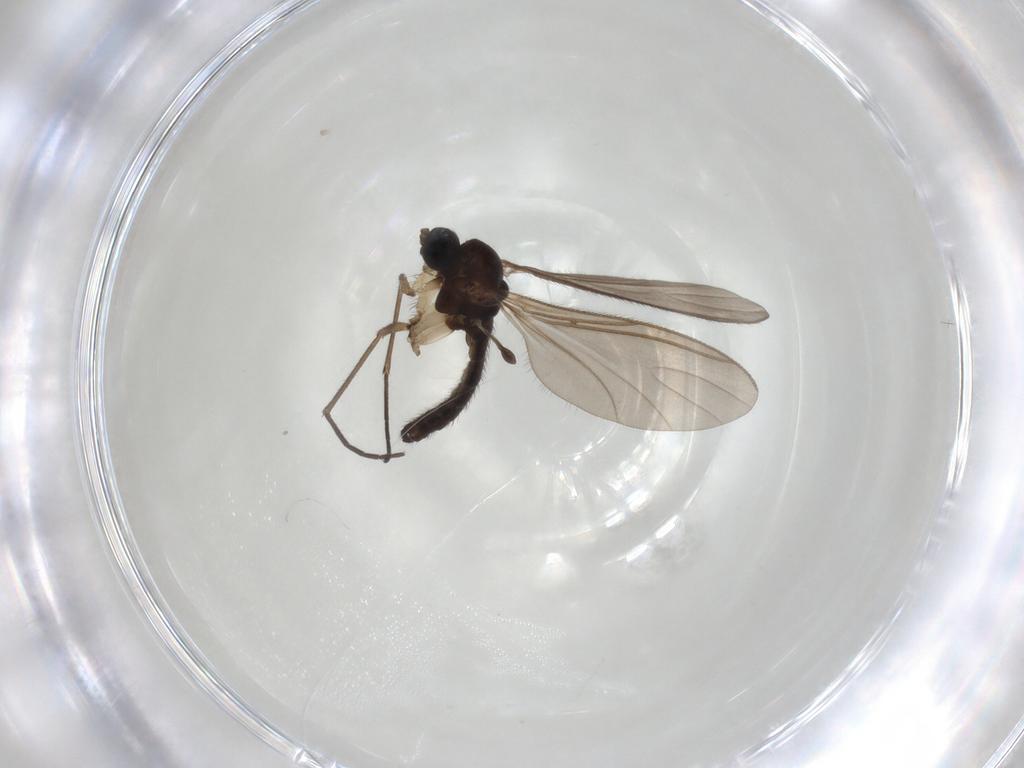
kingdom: Animalia
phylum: Arthropoda
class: Insecta
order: Diptera
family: Sciaridae
